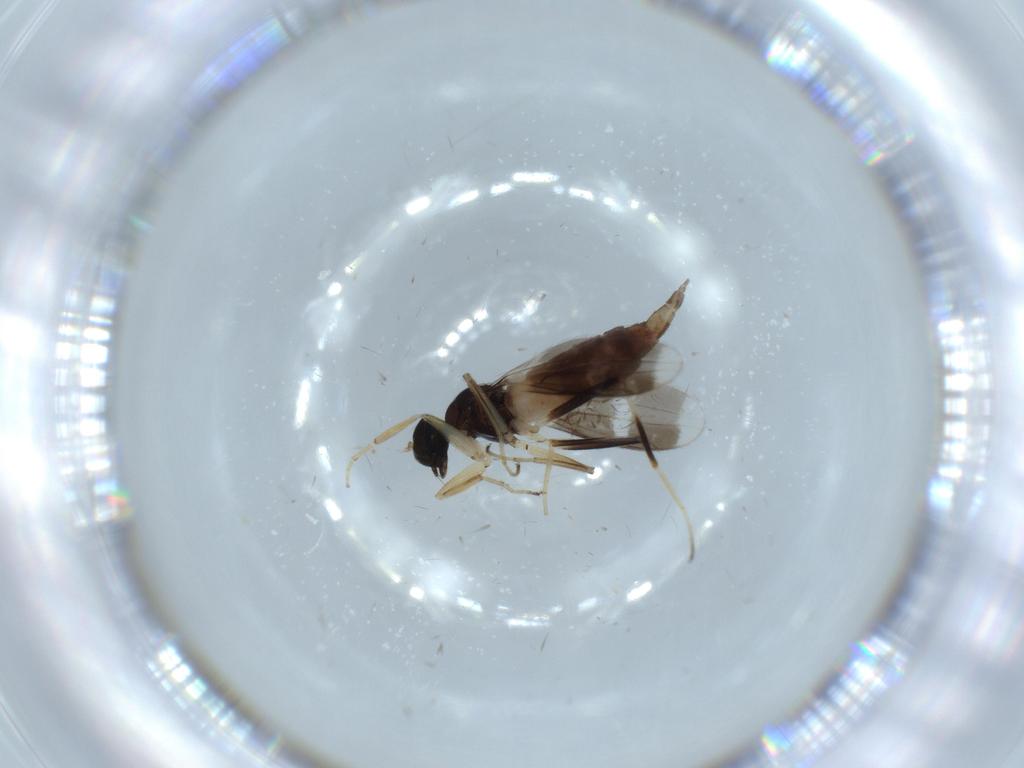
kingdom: Animalia
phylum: Arthropoda
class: Insecta
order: Diptera
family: Hybotidae
